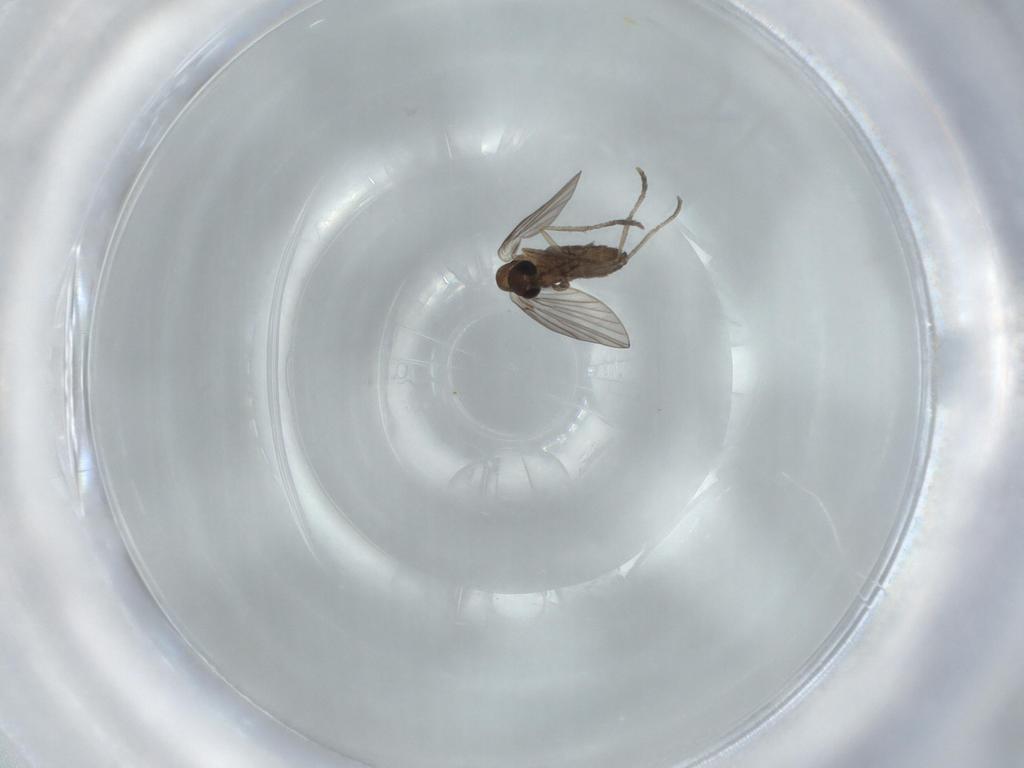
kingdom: Animalia
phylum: Arthropoda
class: Insecta
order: Diptera
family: Psychodidae
